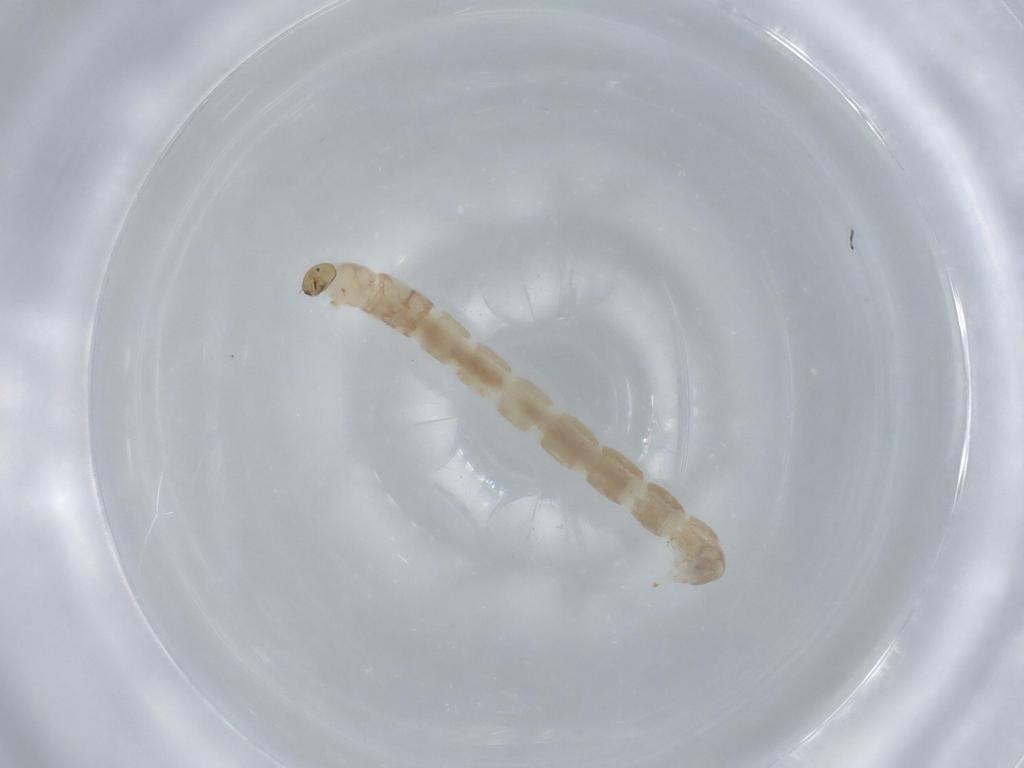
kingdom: Animalia
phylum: Arthropoda
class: Insecta
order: Diptera
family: Chironomidae
